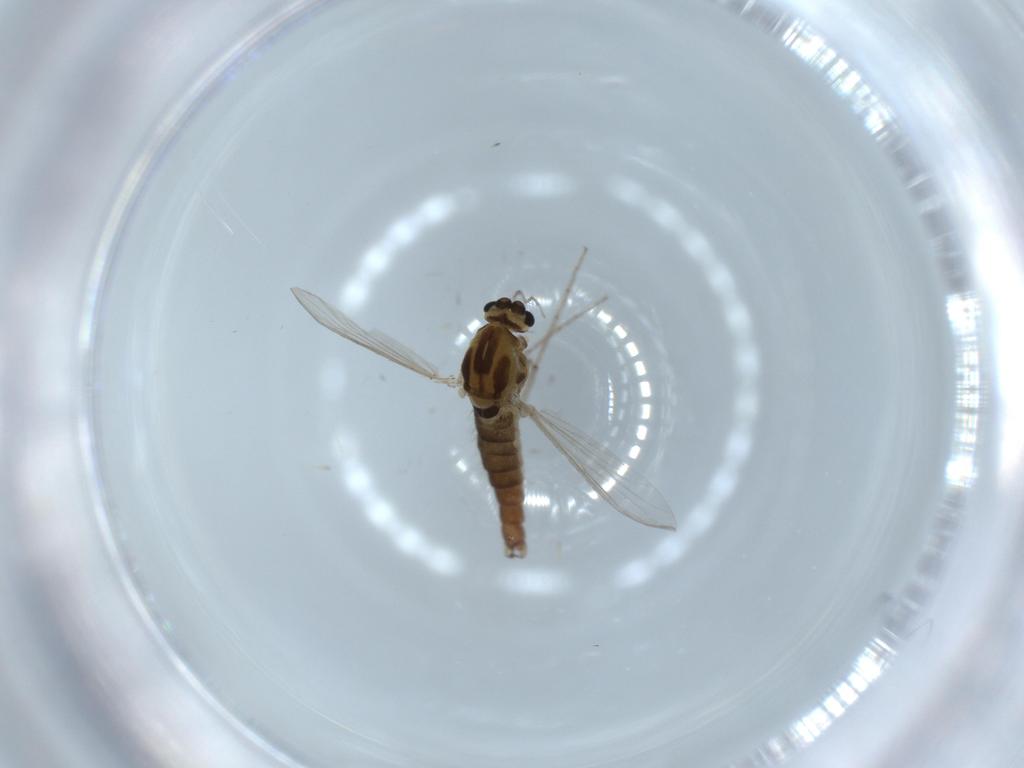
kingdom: Animalia
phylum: Arthropoda
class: Insecta
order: Diptera
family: Chironomidae
